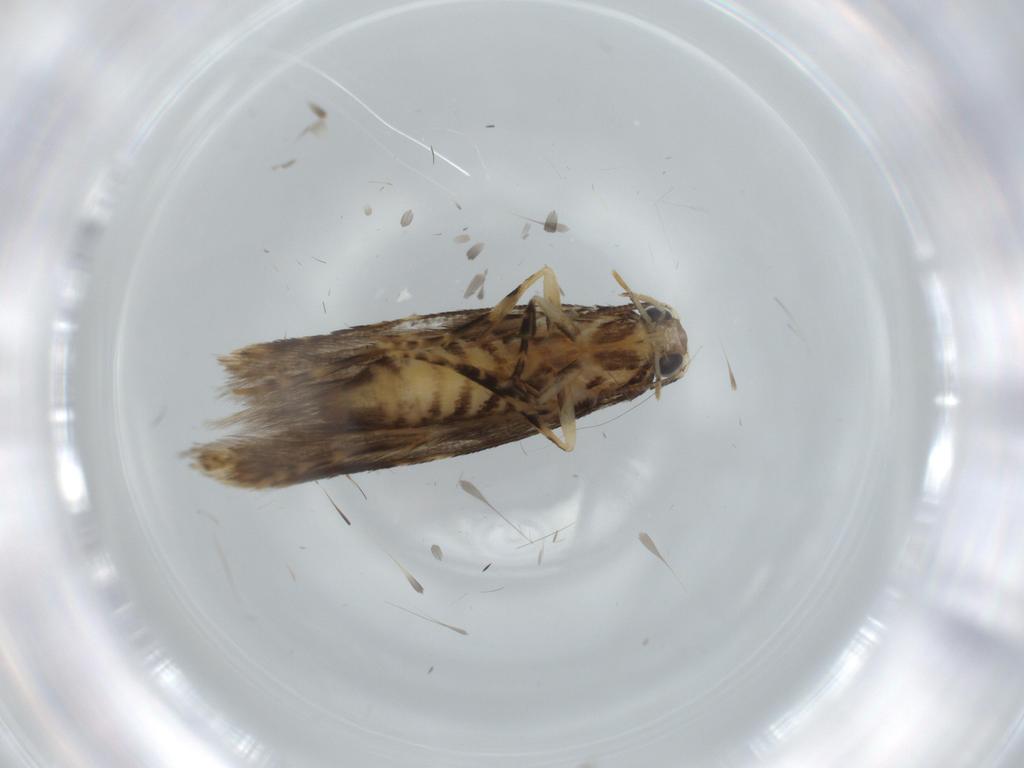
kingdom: Animalia
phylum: Arthropoda
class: Insecta
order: Lepidoptera
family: Tineidae
